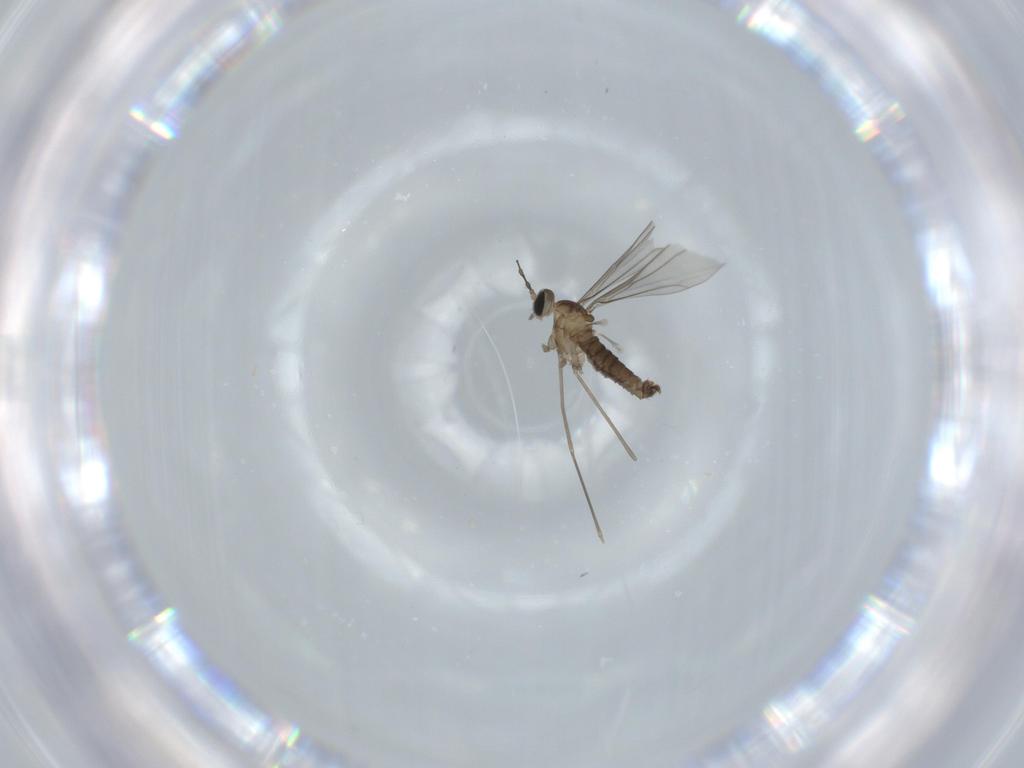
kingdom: Animalia
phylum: Arthropoda
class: Insecta
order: Diptera
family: Cecidomyiidae
